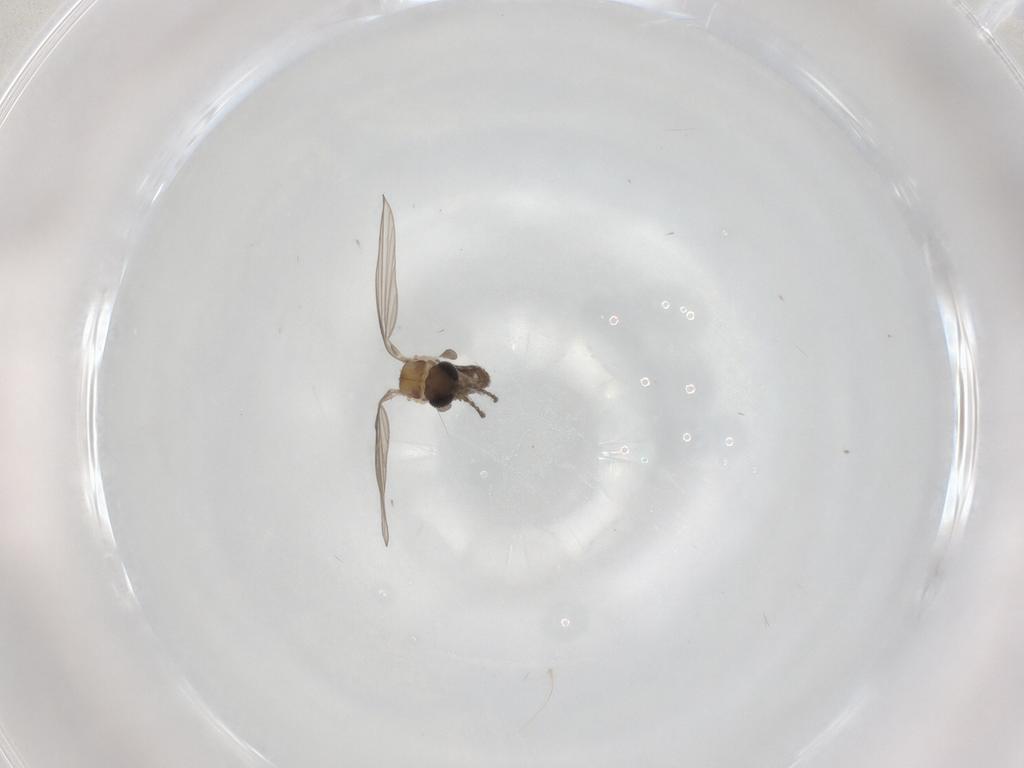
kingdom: Animalia
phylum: Arthropoda
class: Insecta
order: Diptera
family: Psychodidae
